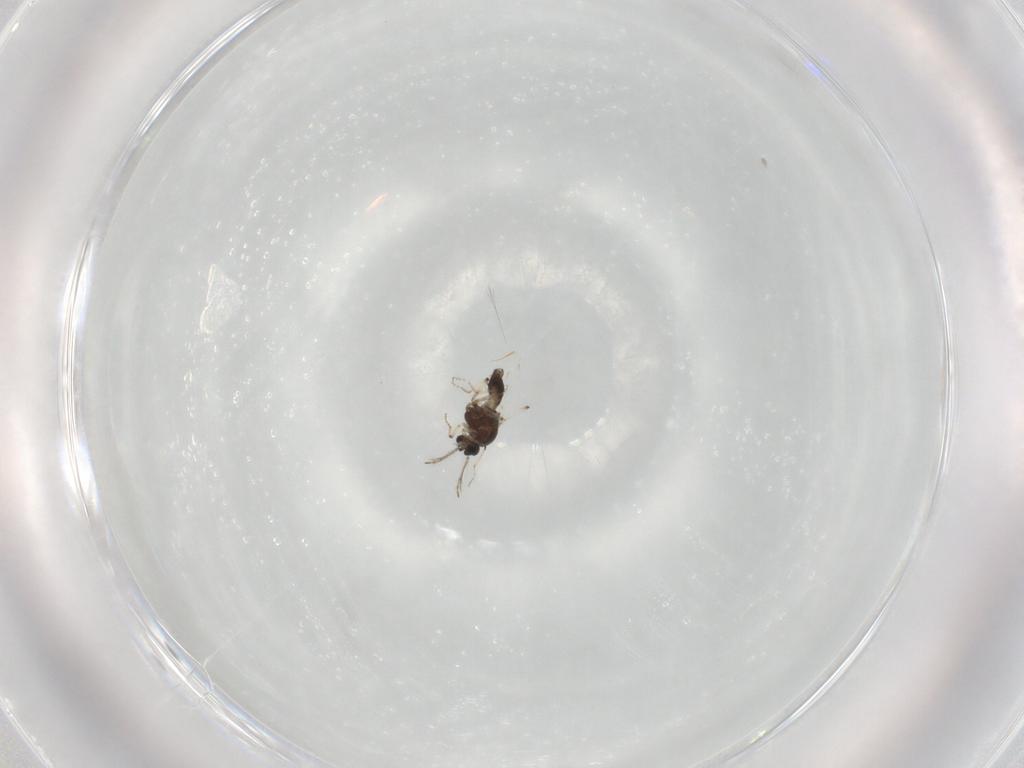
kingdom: Animalia
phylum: Arthropoda
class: Insecta
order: Diptera
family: Ceratopogonidae
